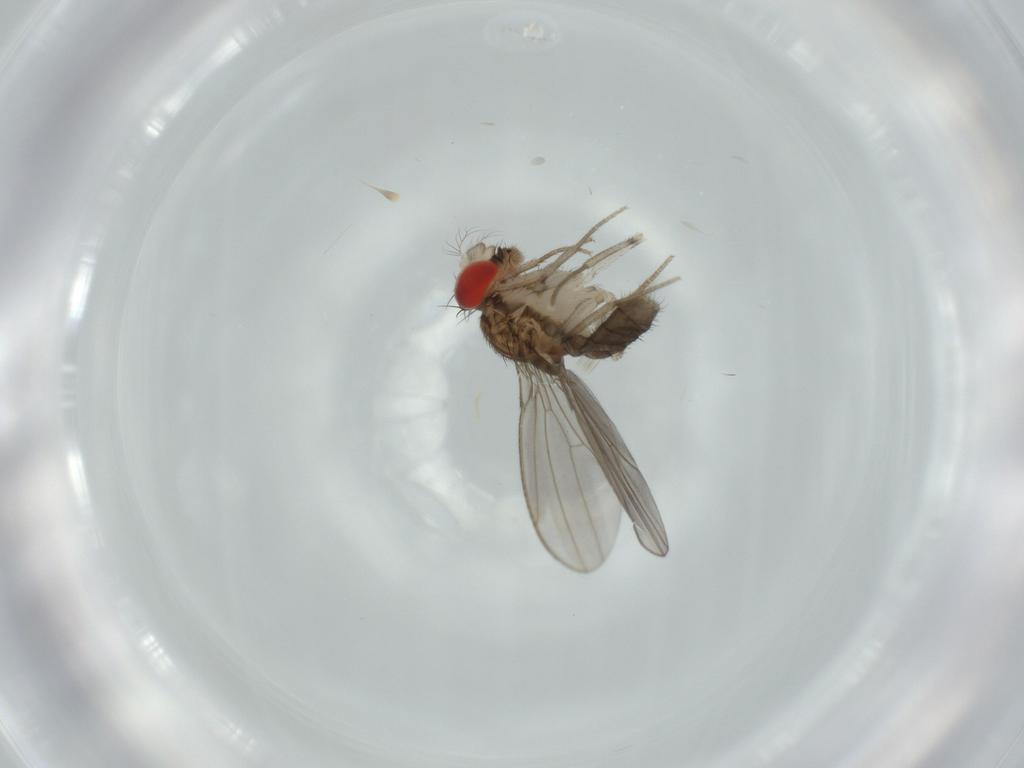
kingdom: Animalia
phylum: Arthropoda
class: Insecta
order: Diptera
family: Drosophilidae
